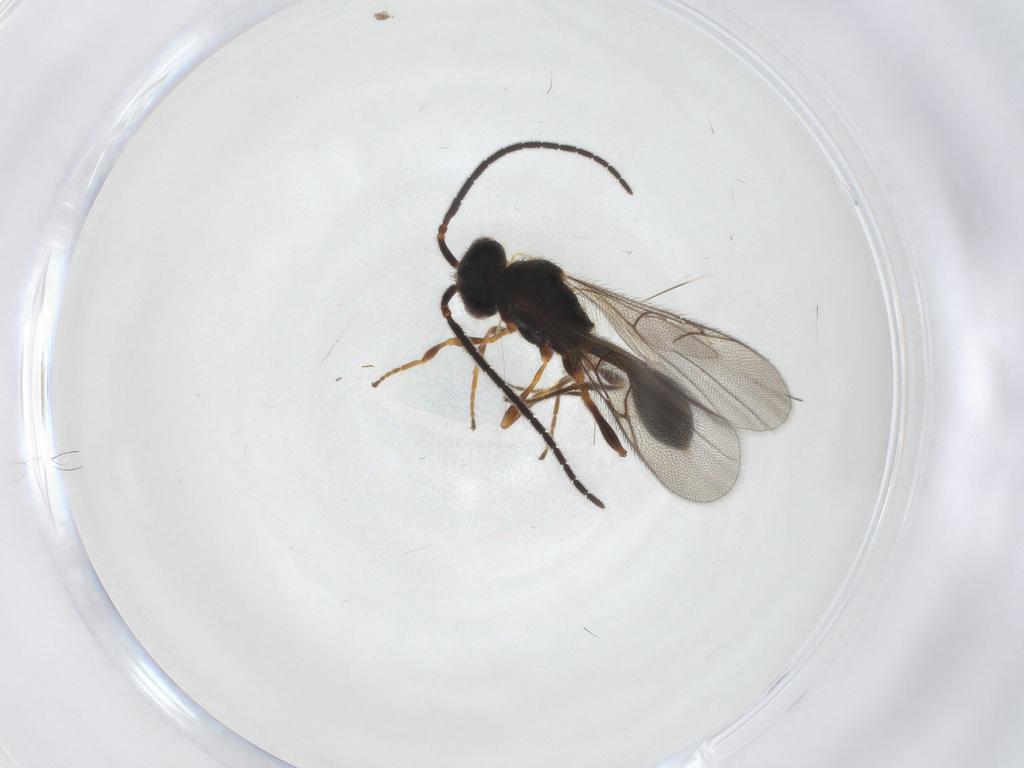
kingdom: Animalia
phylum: Arthropoda
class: Insecta
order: Hymenoptera
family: Diapriidae
